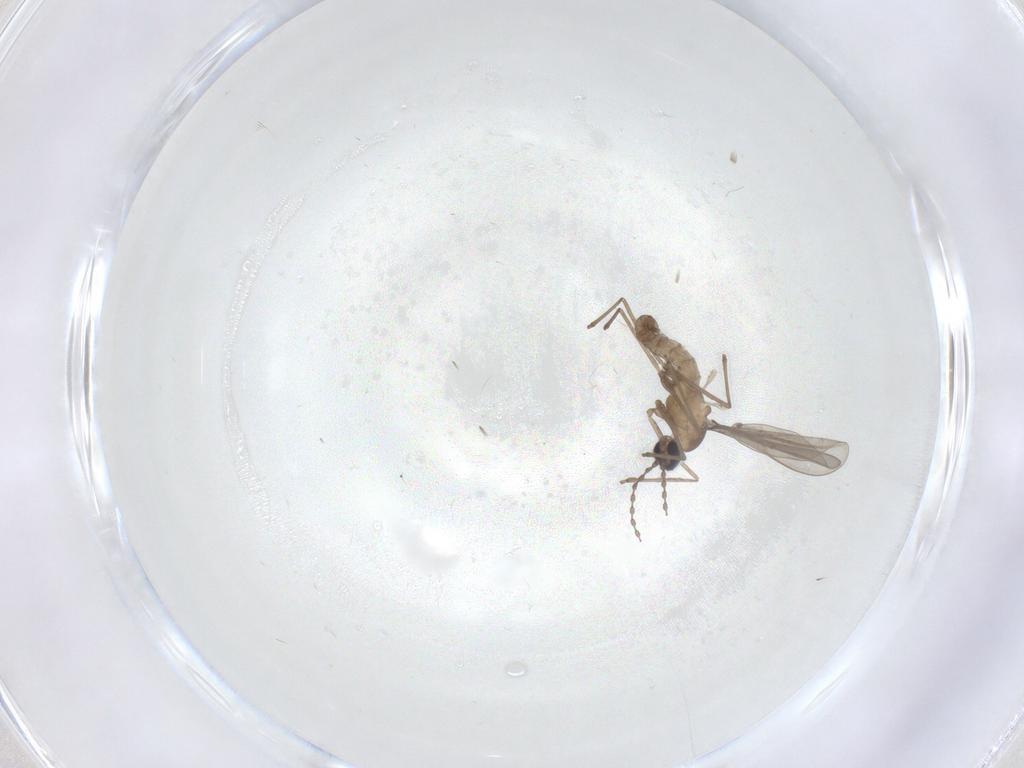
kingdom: Animalia
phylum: Arthropoda
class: Insecta
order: Diptera
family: Cecidomyiidae
